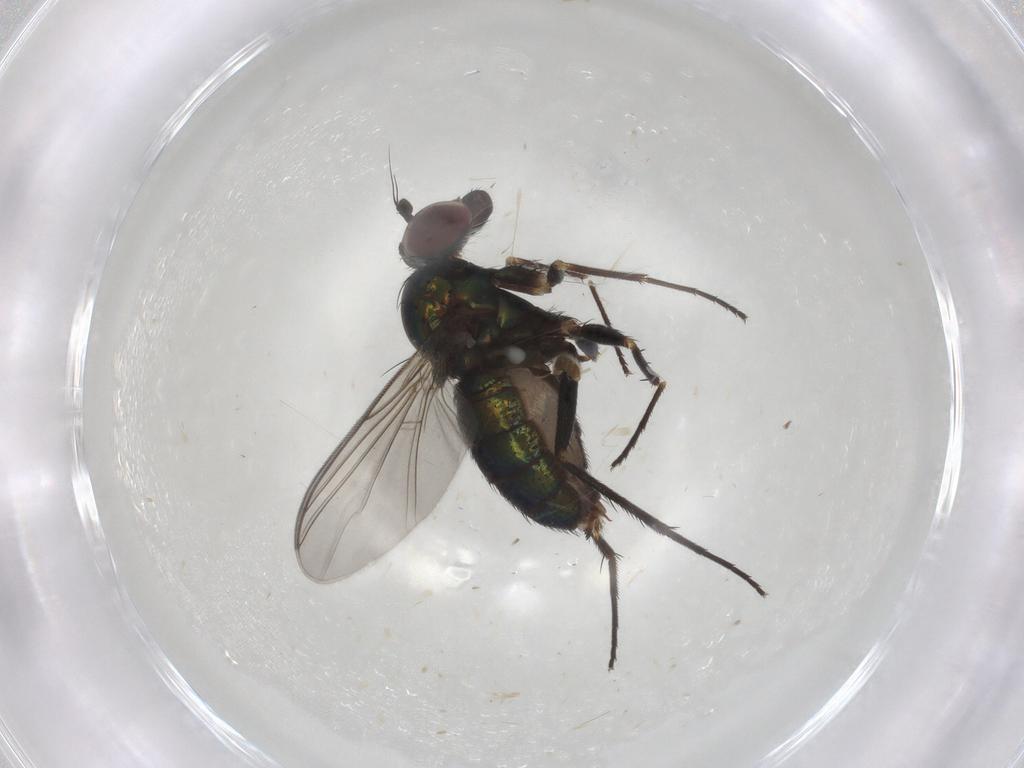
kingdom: Animalia
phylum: Arthropoda
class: Insecta
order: Diptera
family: Dolichopodidae
